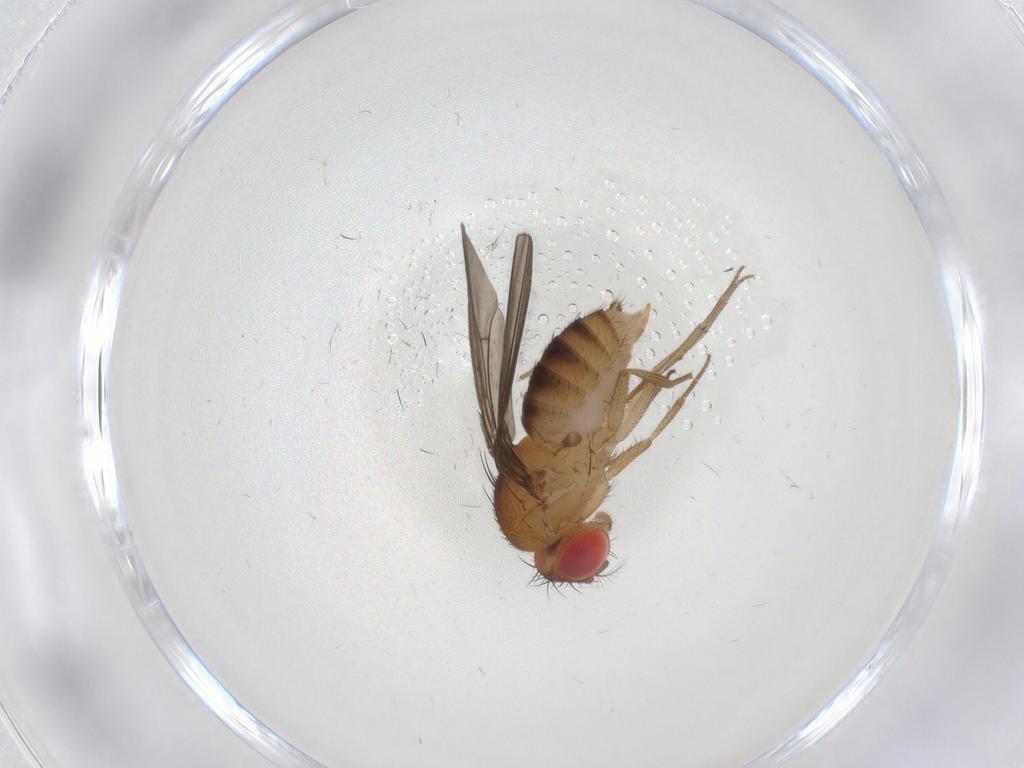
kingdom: Animalia
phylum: Arthropoda
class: Insecta
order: Diptera
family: Drosophilidae
